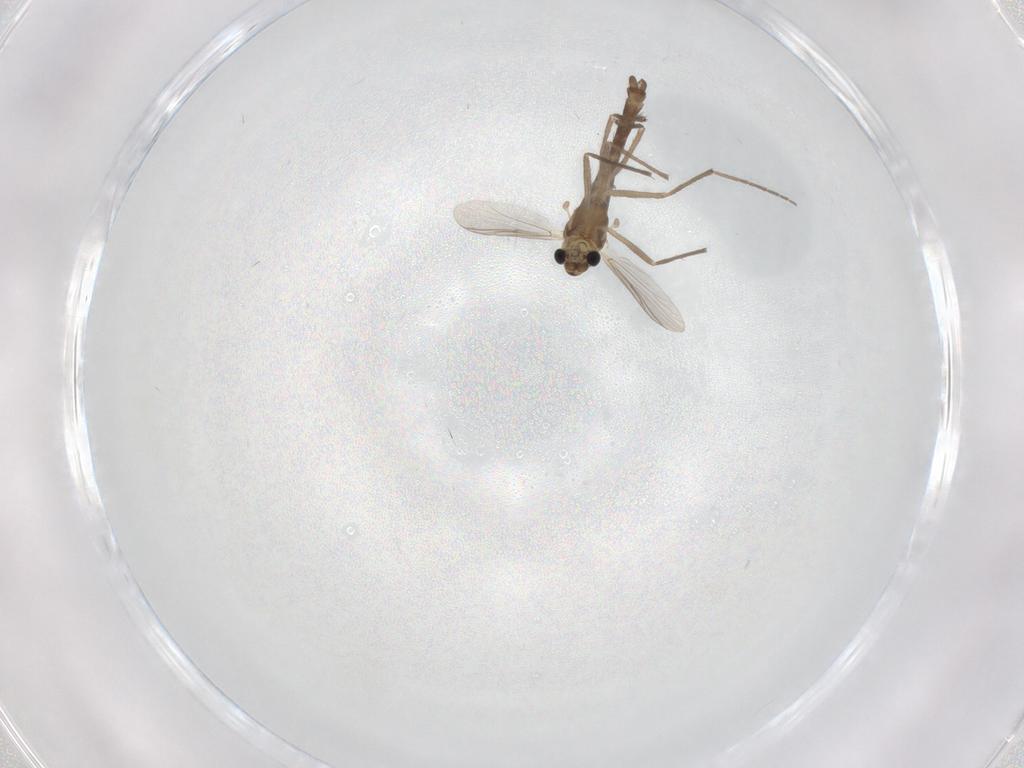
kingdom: Animalia
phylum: Arthropoda
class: Insecta
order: Diptera
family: Chironomidae
